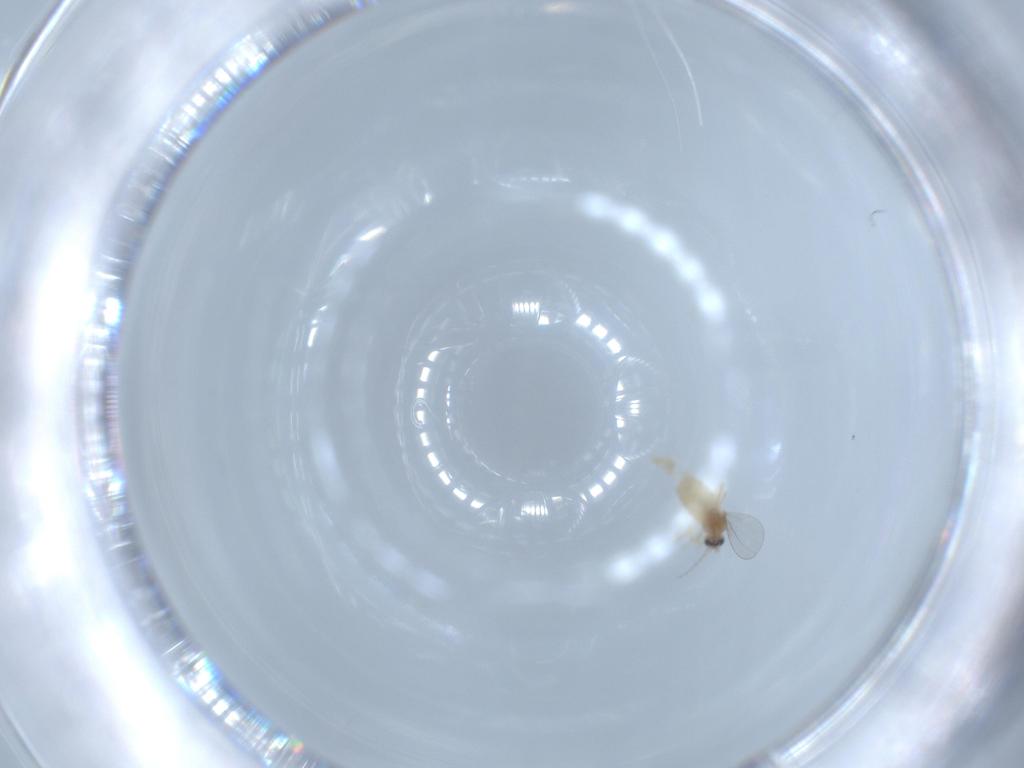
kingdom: Animalia
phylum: Arthropoda
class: Insecta
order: Diptera
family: Cecidomyiidae
